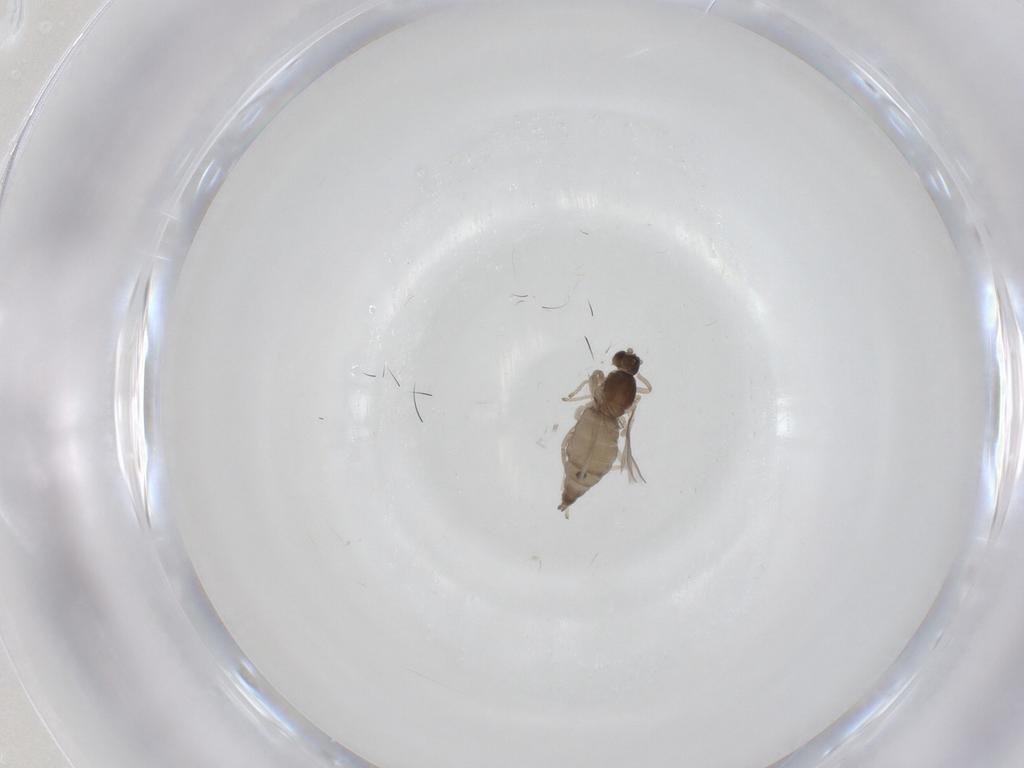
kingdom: Animalia
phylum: Arthropoda
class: Insecta
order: Diptera
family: Cecidomyiidae
